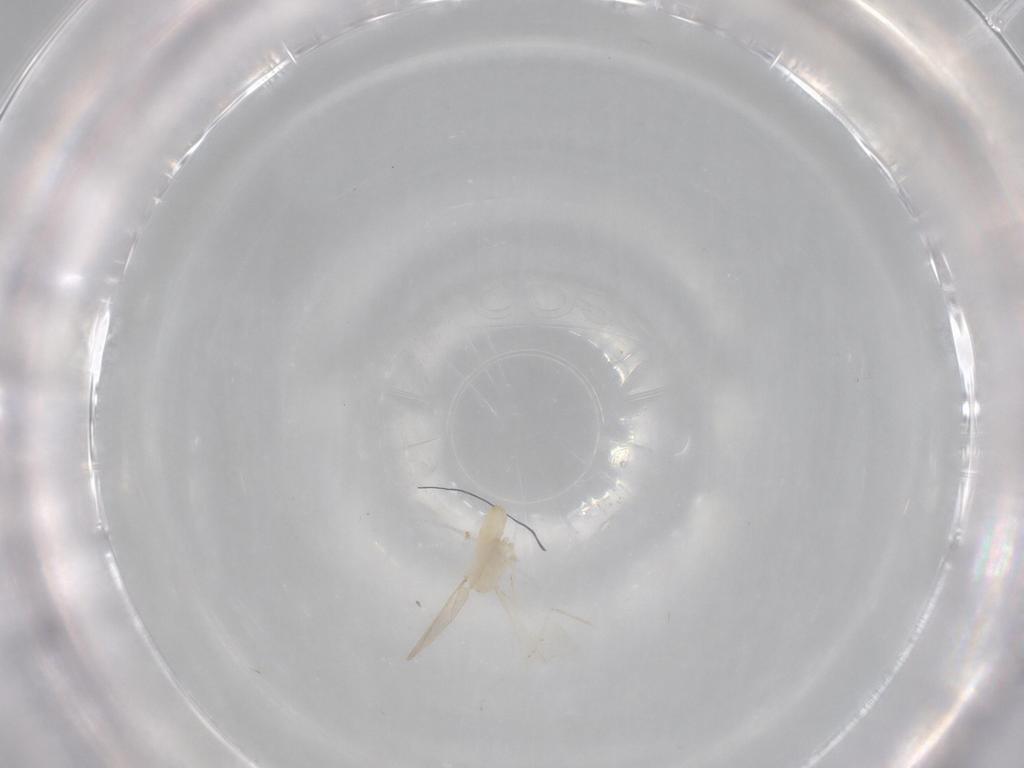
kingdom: Animalia
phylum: Arthropoda
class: Insecta
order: Diptera
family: Cecidomyiidae
